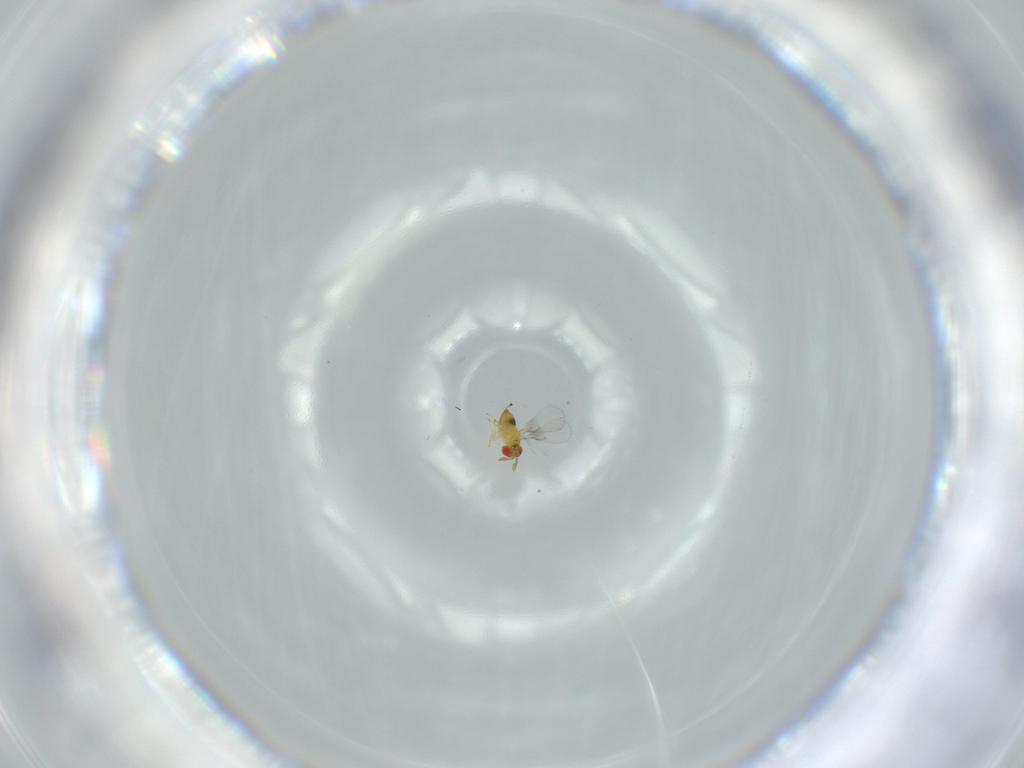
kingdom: Animalia
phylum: Arthropoda
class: Insecta
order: Hymenoptera
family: Trichogrammatidae
